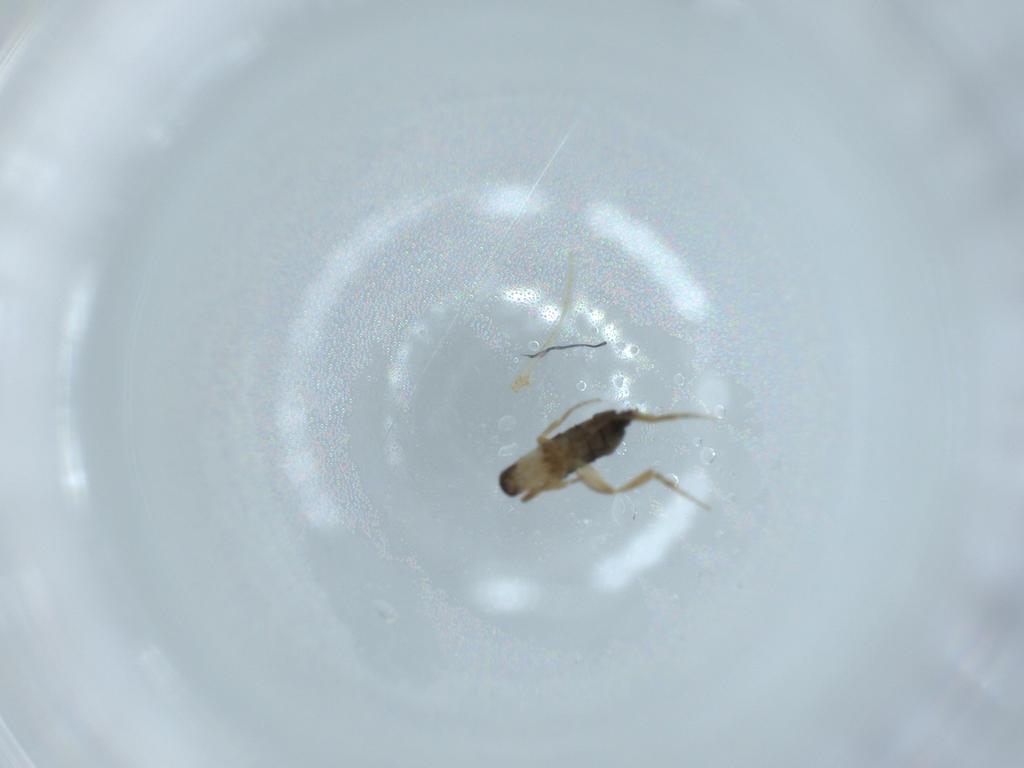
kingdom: Animalia
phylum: Arthropoda
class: Insecta
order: Diptera
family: Phoridae
